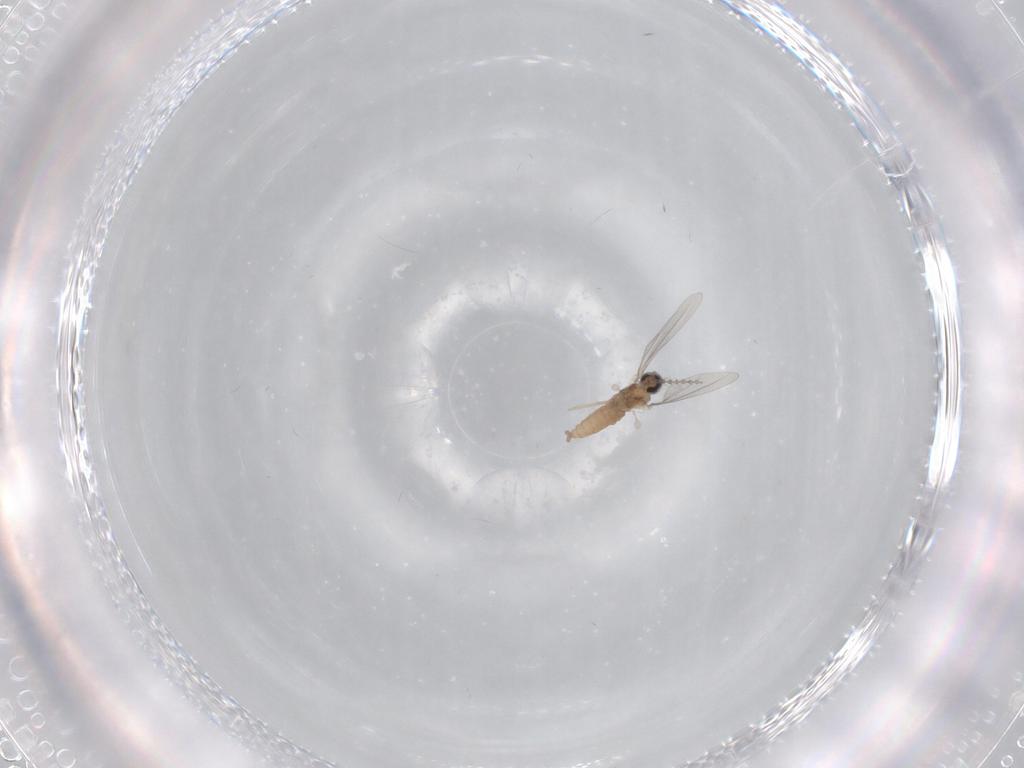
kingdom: Animalia
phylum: Arthropoda
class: Insecta
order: Diptera
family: Cecidomyiidae
